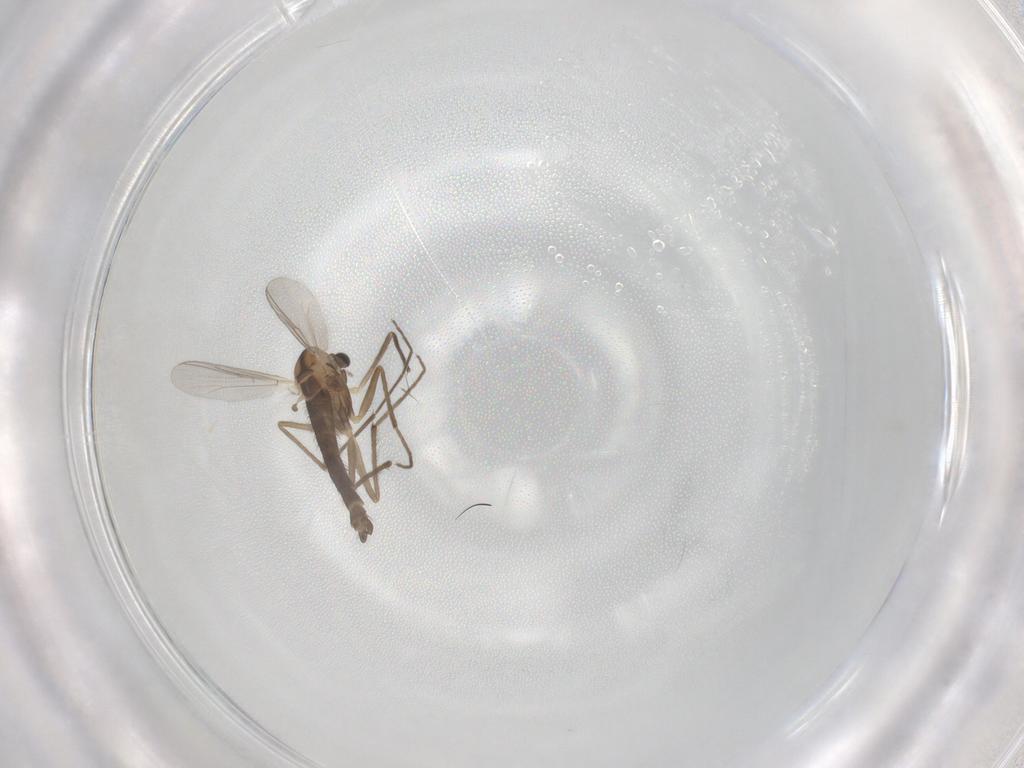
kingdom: Animalia
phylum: Arthropoda
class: Insecta
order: Diptera
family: Chironomidae
